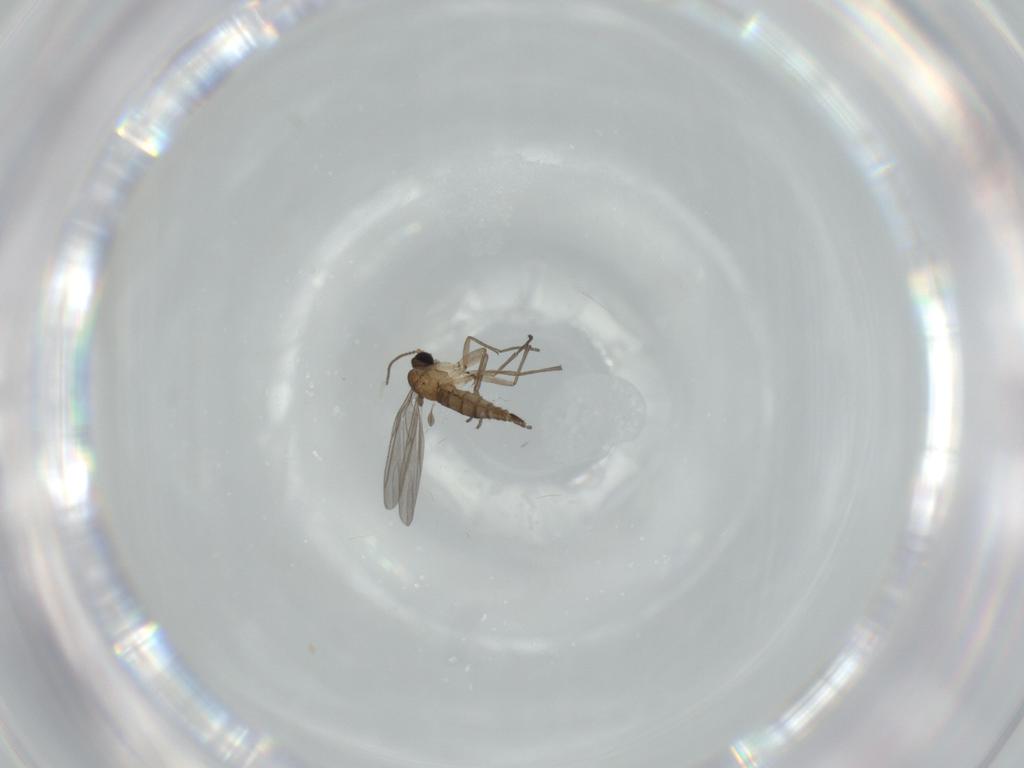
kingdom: Animalia
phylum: Arthropoda
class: Insecta
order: Diptera
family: Sciaridae
